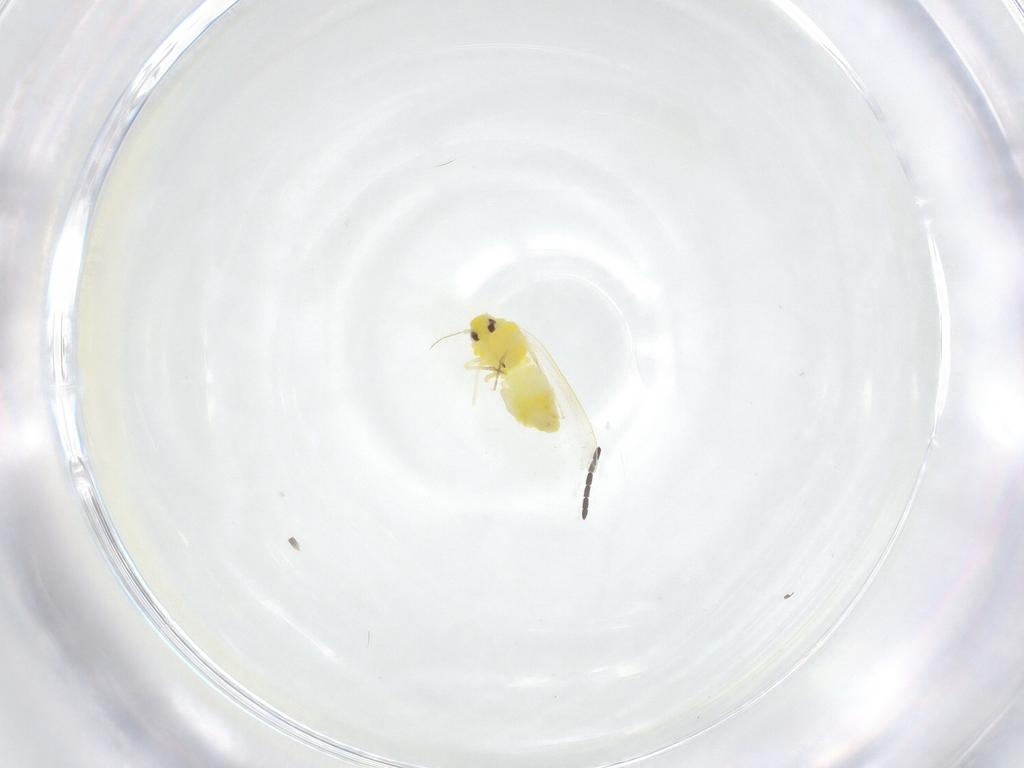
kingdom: Animalia
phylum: Arthropoda
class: Insecta
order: Hemiptera
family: Aleyrodidae
